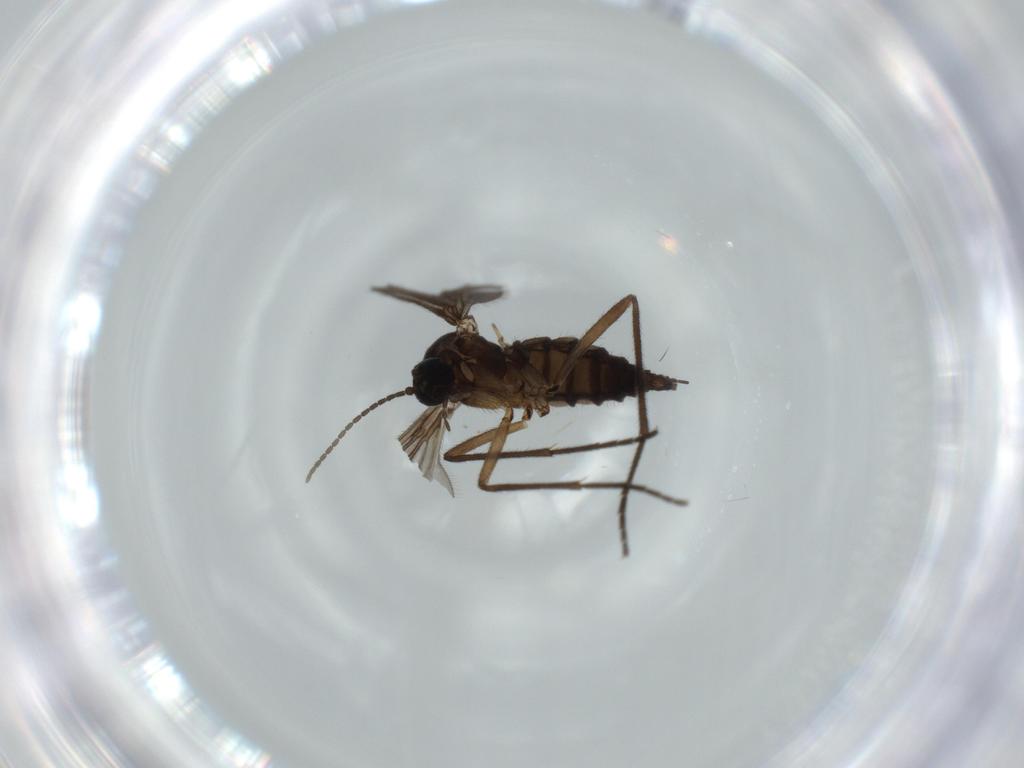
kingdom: Animalia
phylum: Arthropoda
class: Insecta
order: Diptera
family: Sciaridae
